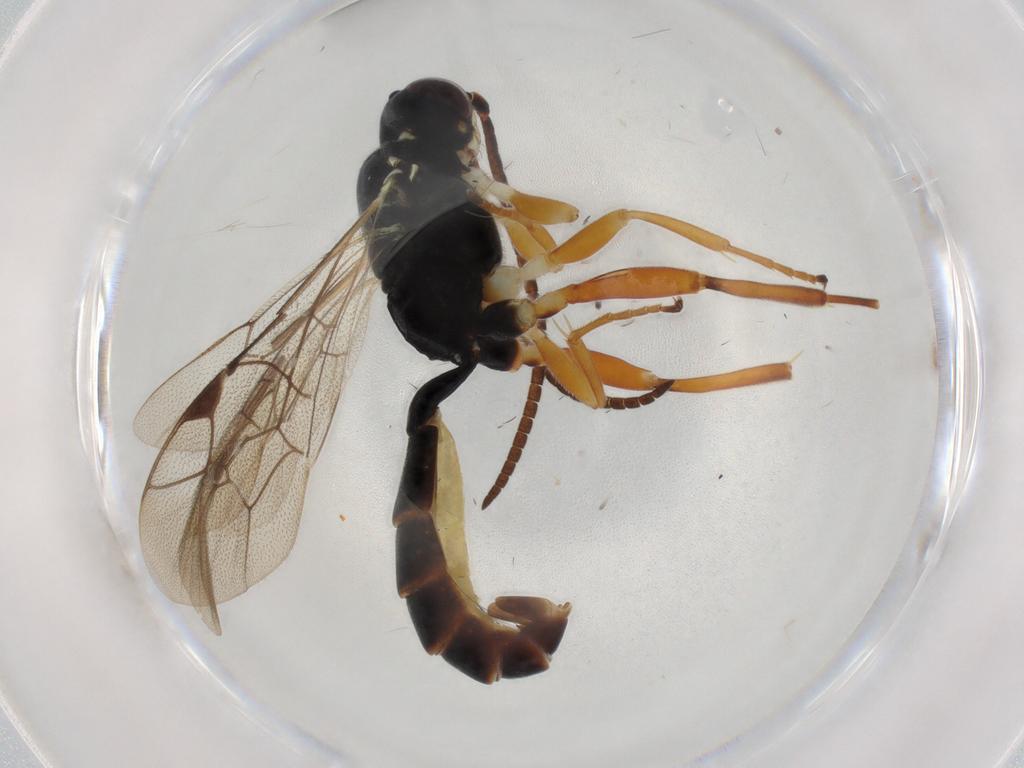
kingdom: Animalia
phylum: Arthropoda
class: Insecta
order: Hymenoptera
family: Ichneumonidae
